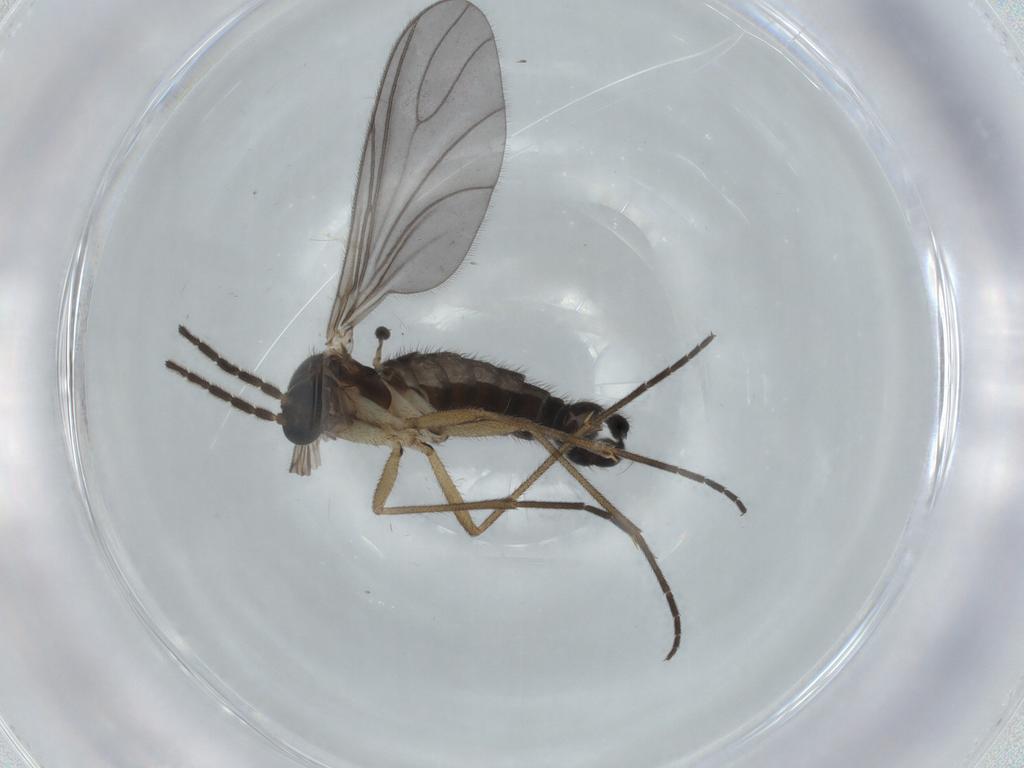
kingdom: Animalia
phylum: Arthropoda
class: Insecta
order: Diptera
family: Sciaridae
